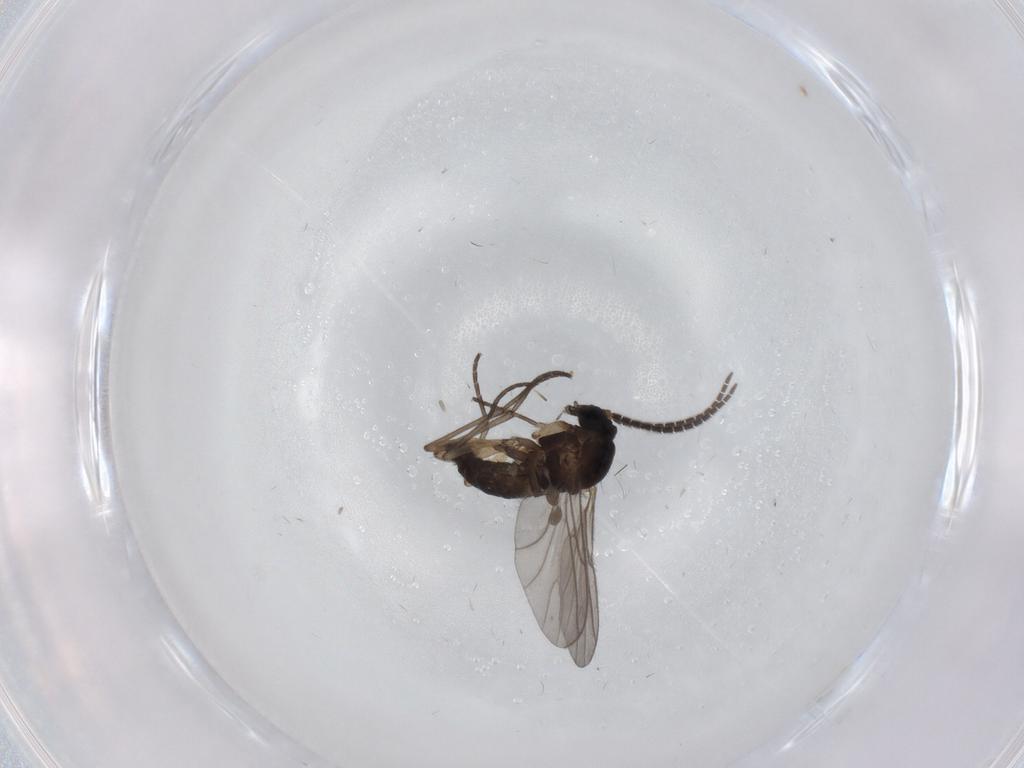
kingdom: Animalia
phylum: Arthropoda
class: Insecta
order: Diptera
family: Sciaridae
